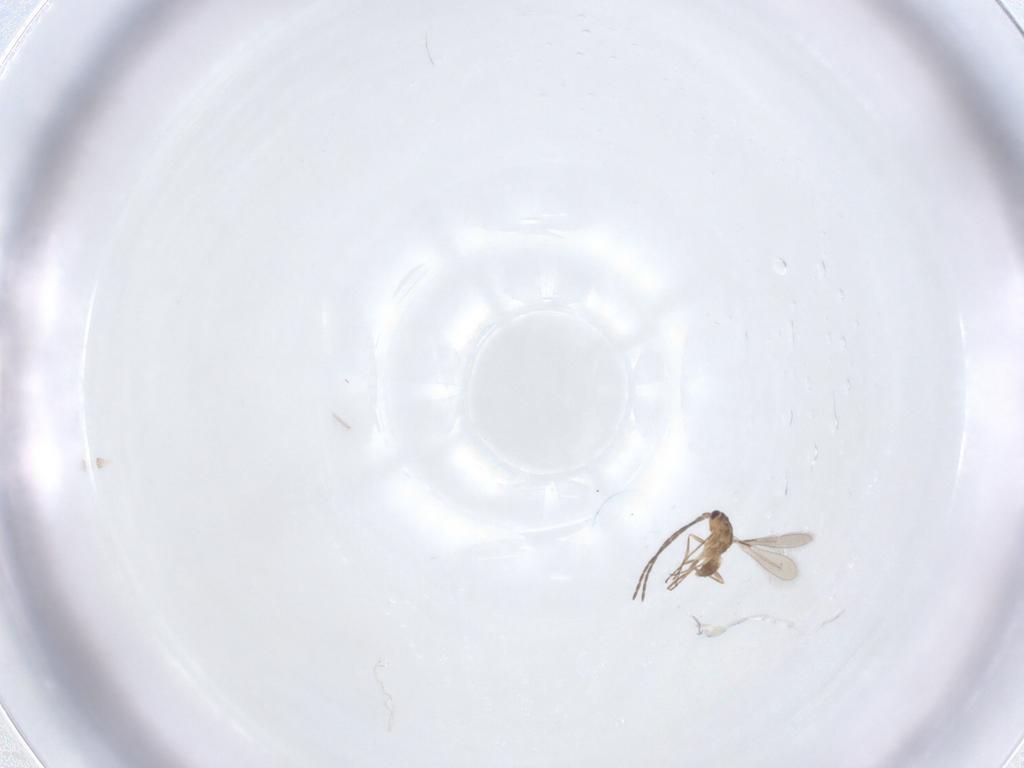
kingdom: Animalia
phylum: Arthropoda
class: Insecta
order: Hymenoptera
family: Mymaridae
